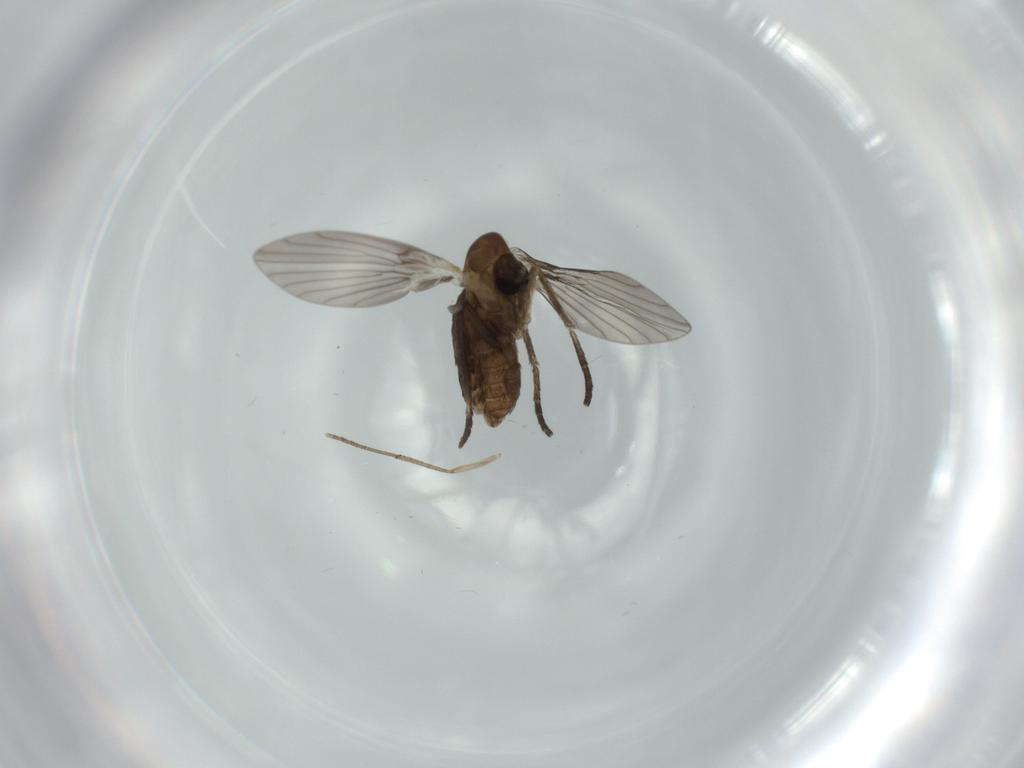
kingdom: Animalia
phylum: Arthropoda
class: Insecta
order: Diptera
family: Psychodidae
